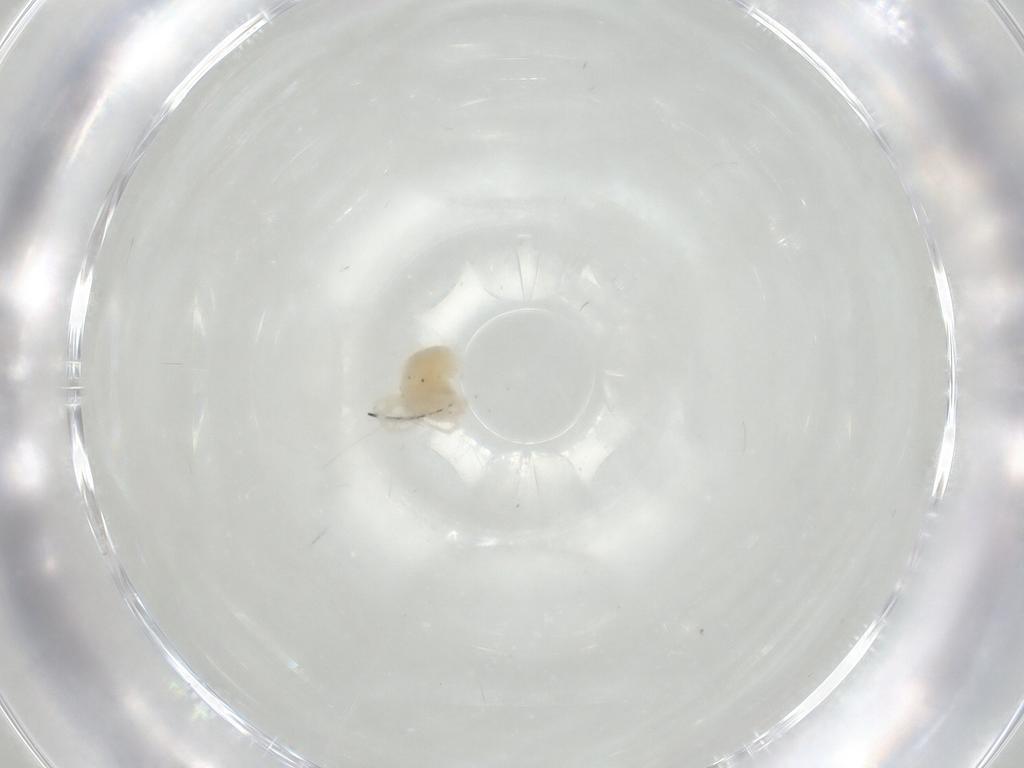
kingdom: Animalia
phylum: Arthropoda
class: Arachnida
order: Trombidiformes
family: Anystidae
